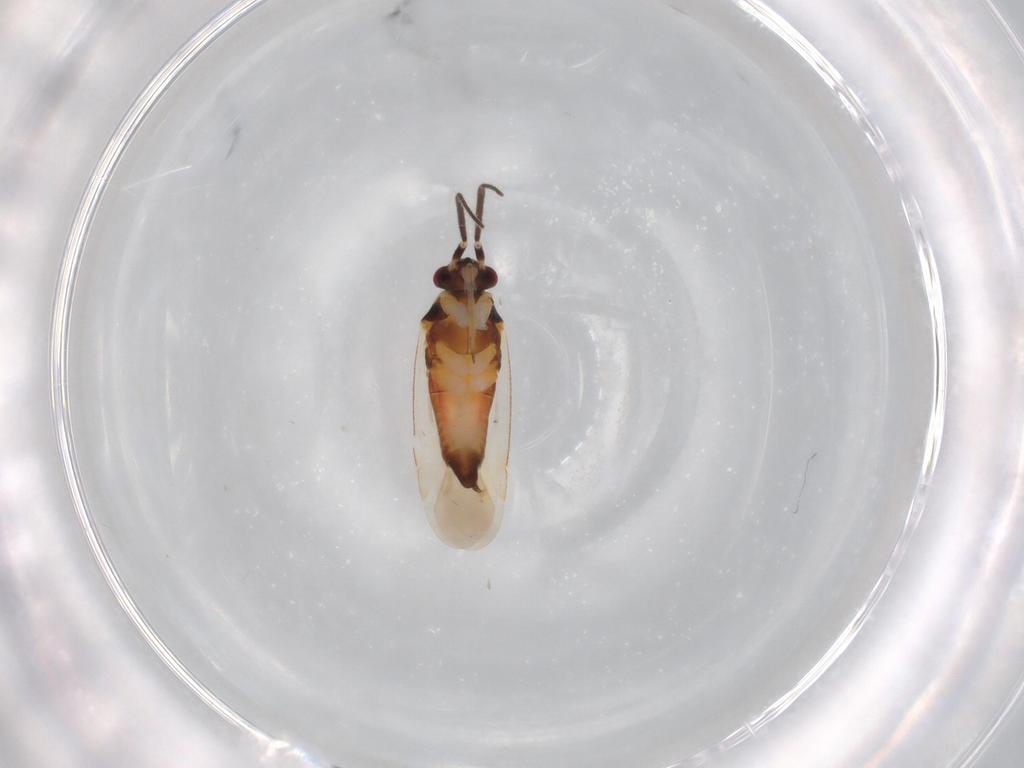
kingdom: Animalia
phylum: Arthropoda
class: Insecta
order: Hemiptera
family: Miridae
